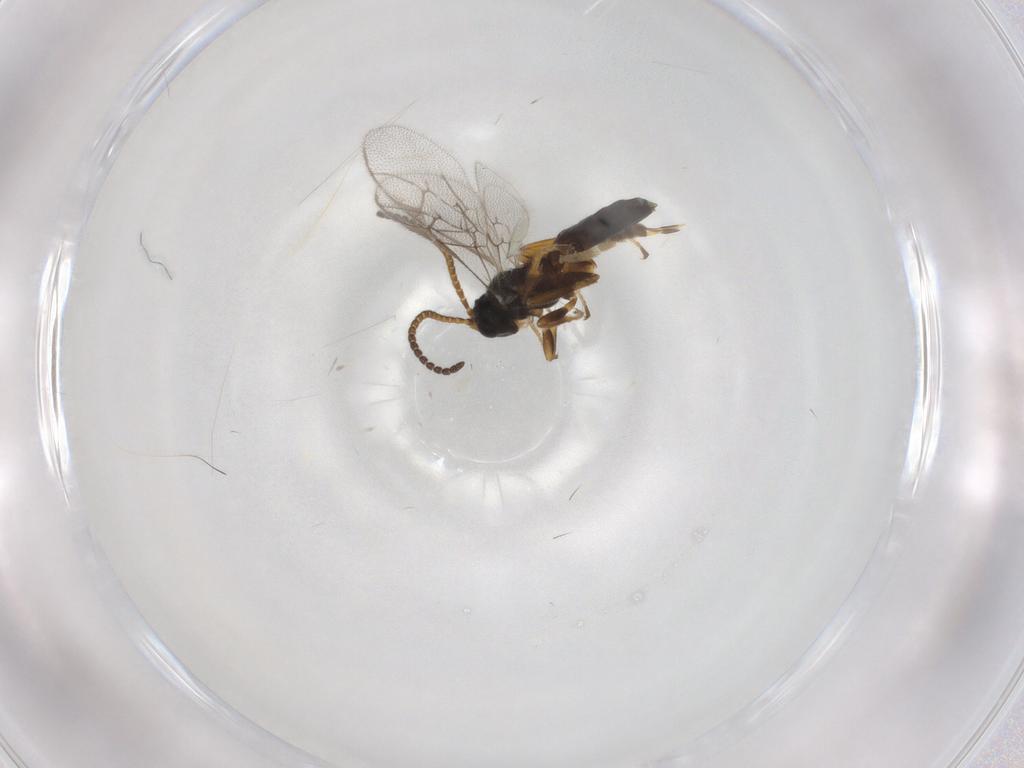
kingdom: Animalia
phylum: Arthropoda
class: Insecta
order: Hymenoptera
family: Ichneumonidae
